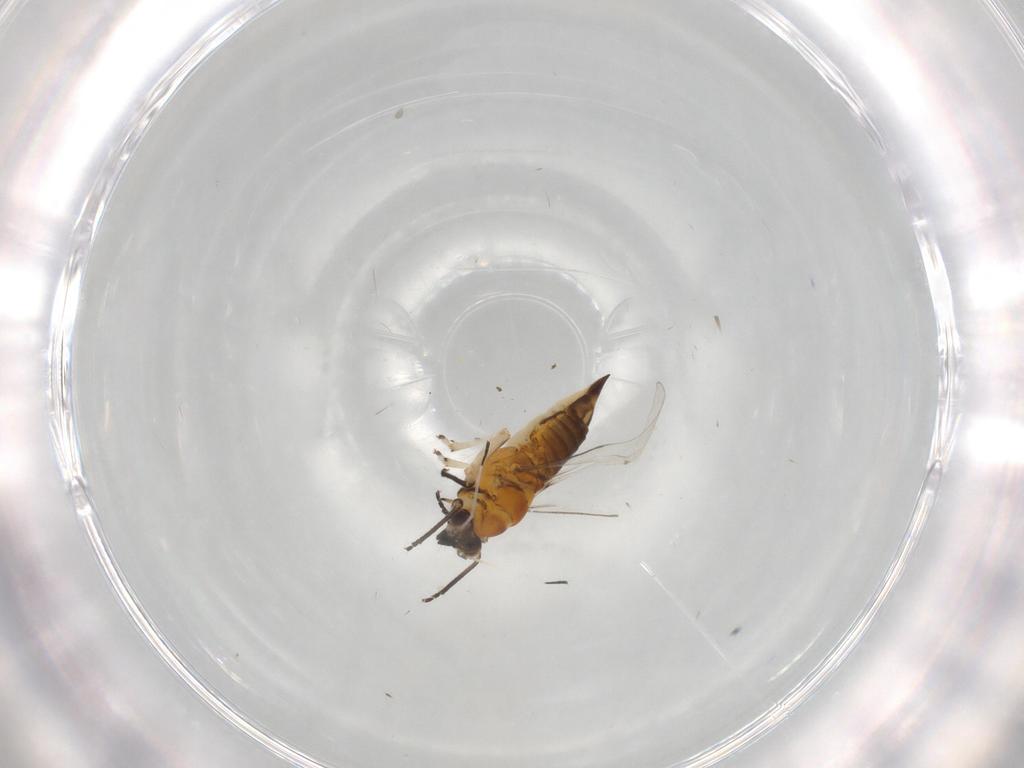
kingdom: Animalia
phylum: Arthropoda
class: Insecta
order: Hemiptera
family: Triozidae
